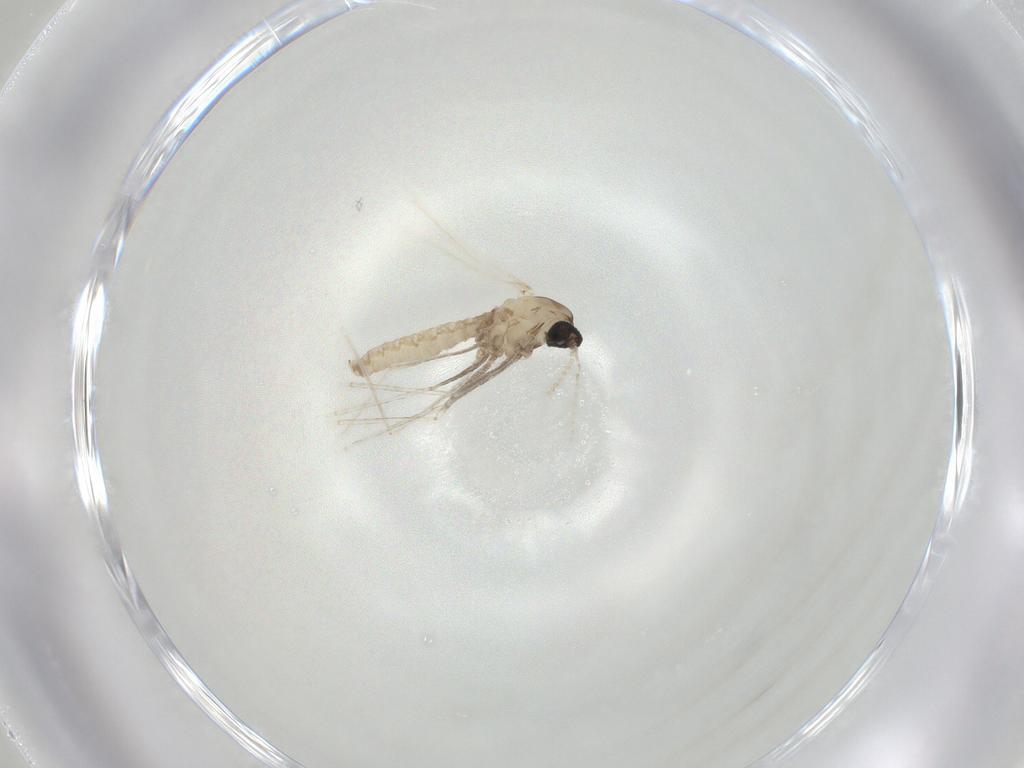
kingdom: Animalia
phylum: Arthropoda
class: Insecta
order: Diptera
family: Cecidomyiidae
